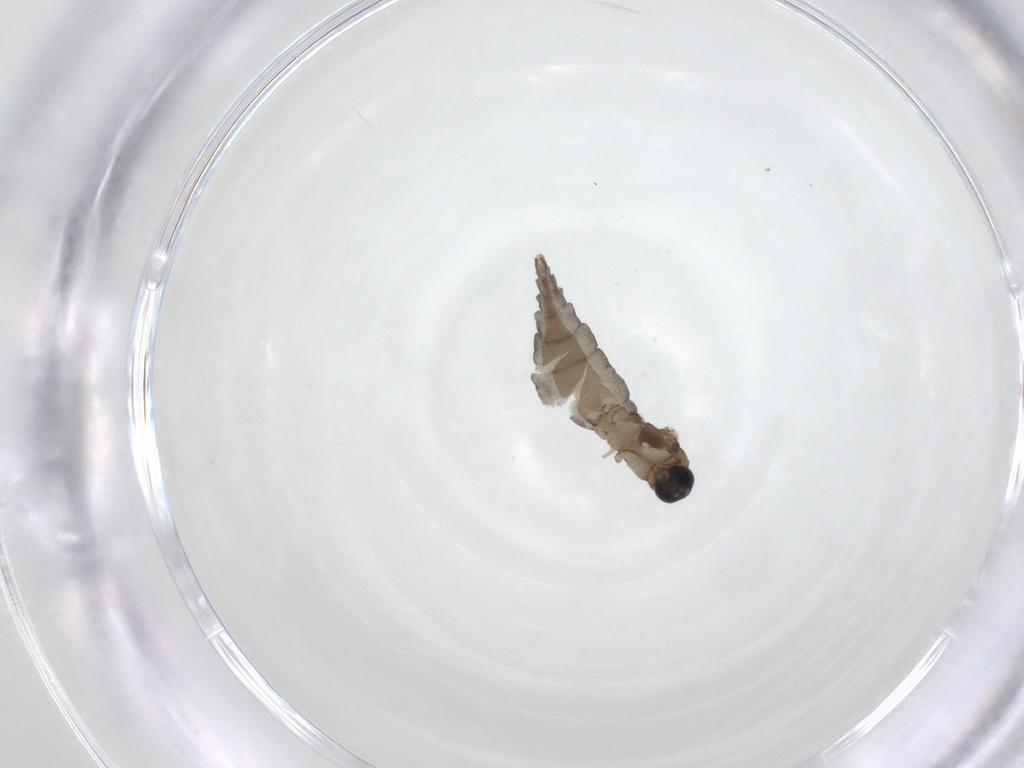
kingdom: Animalia
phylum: Arthropoda
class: Insecta
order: Diptera
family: Sciaridae
